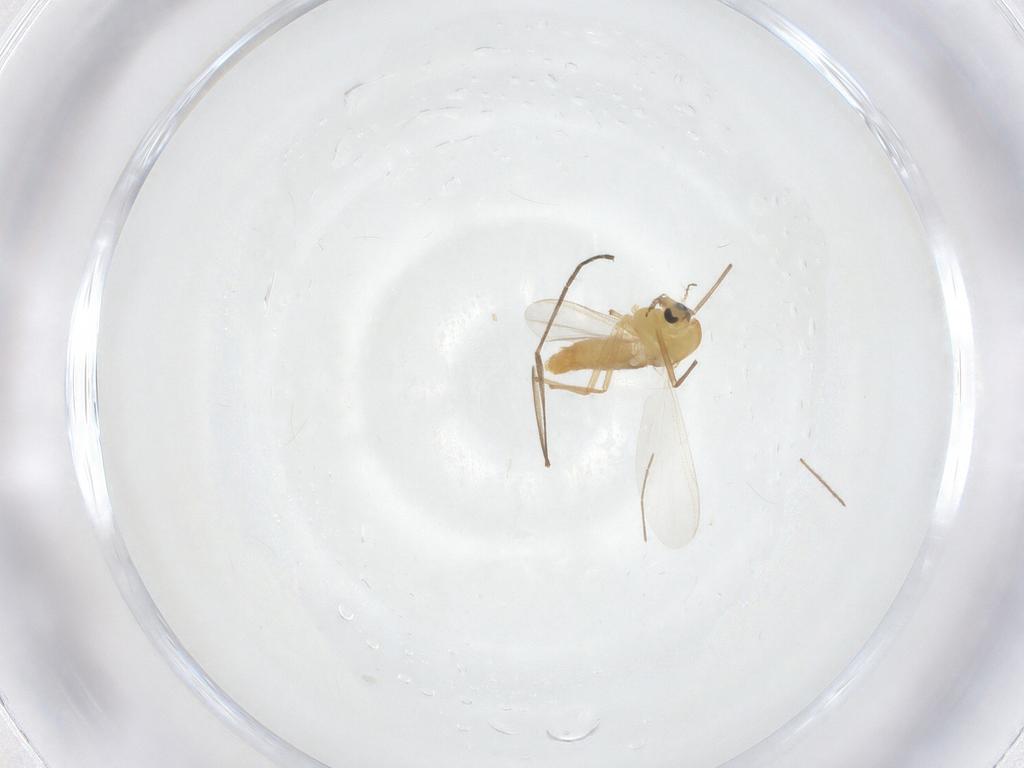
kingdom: Animalia
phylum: Arthropoda
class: Insecta
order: Diptera
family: Chironomidae
